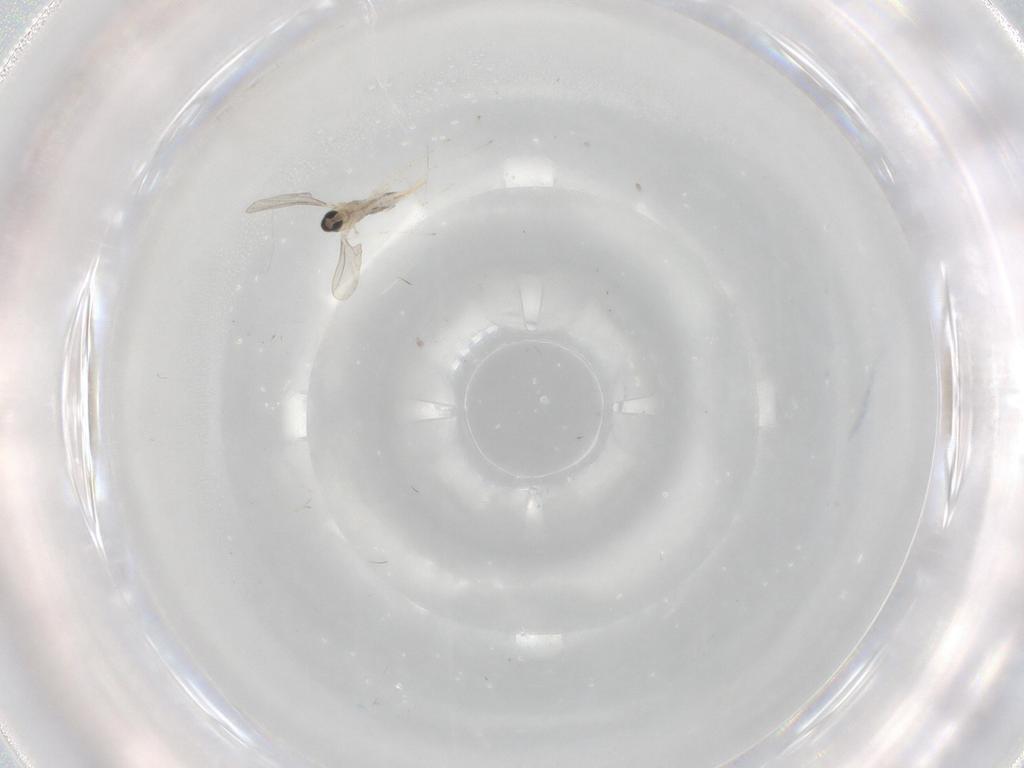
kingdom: Animalia
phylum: Arthropoda
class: Insecta
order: Diptera
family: Cecidomyiidae
